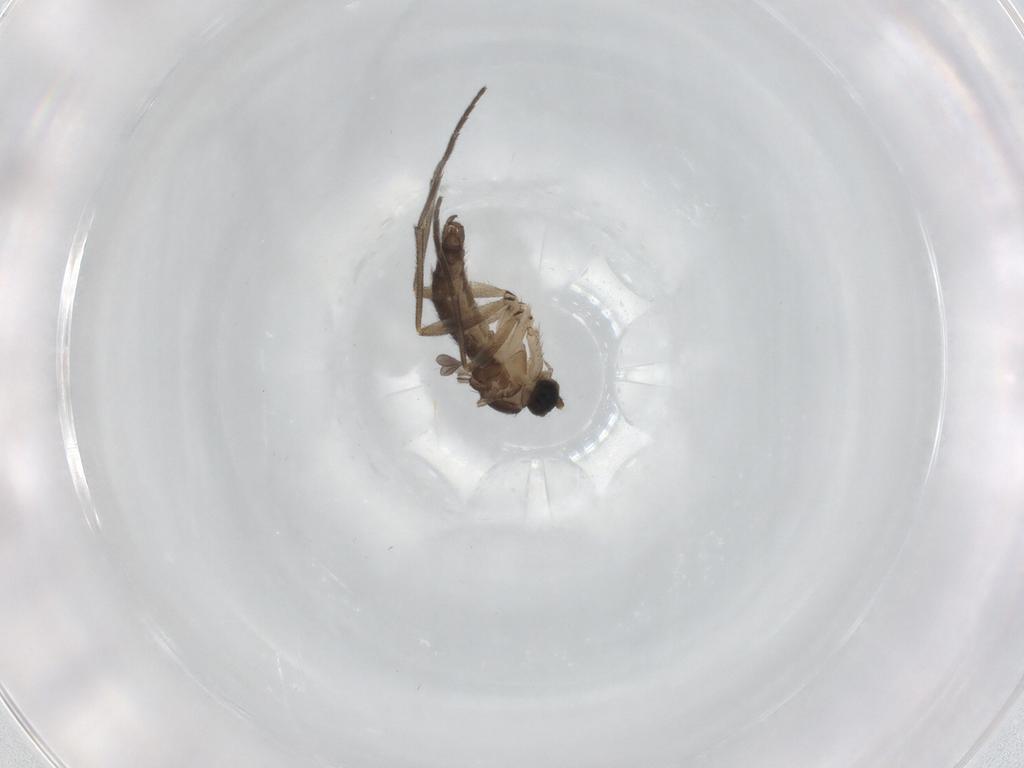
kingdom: Animalia
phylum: Arthropoda
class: Insecta
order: Diptera
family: Sciaridae
